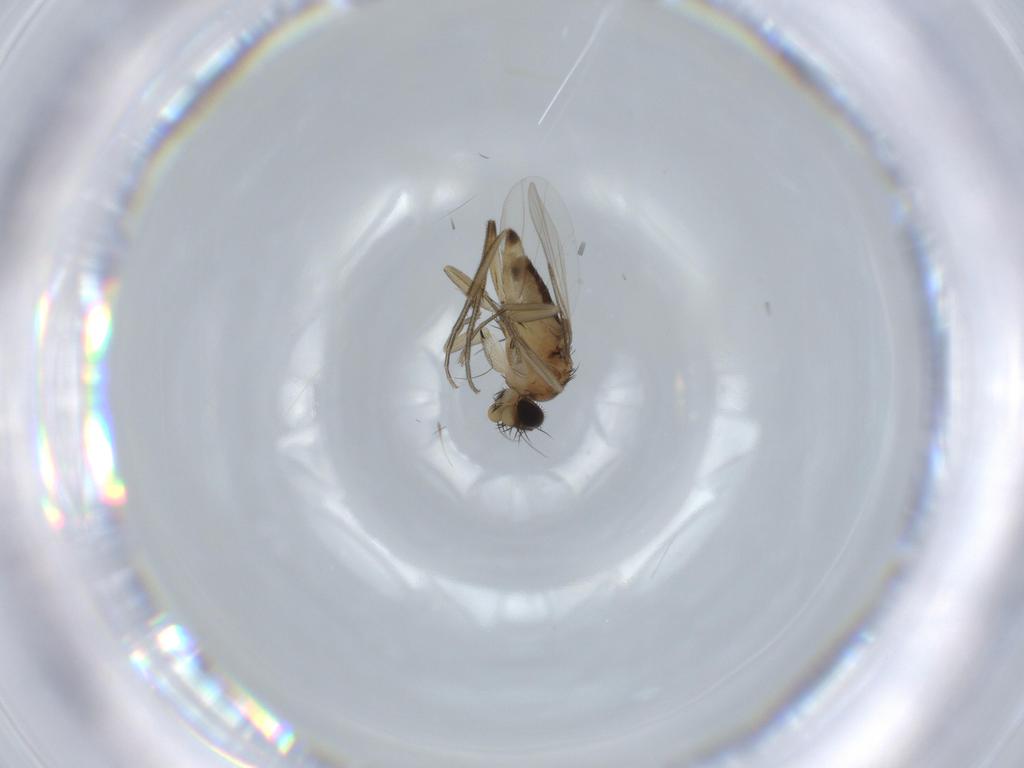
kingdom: Animalia
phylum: Arthropoda
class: Insecta
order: Diptera
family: Phoridae
